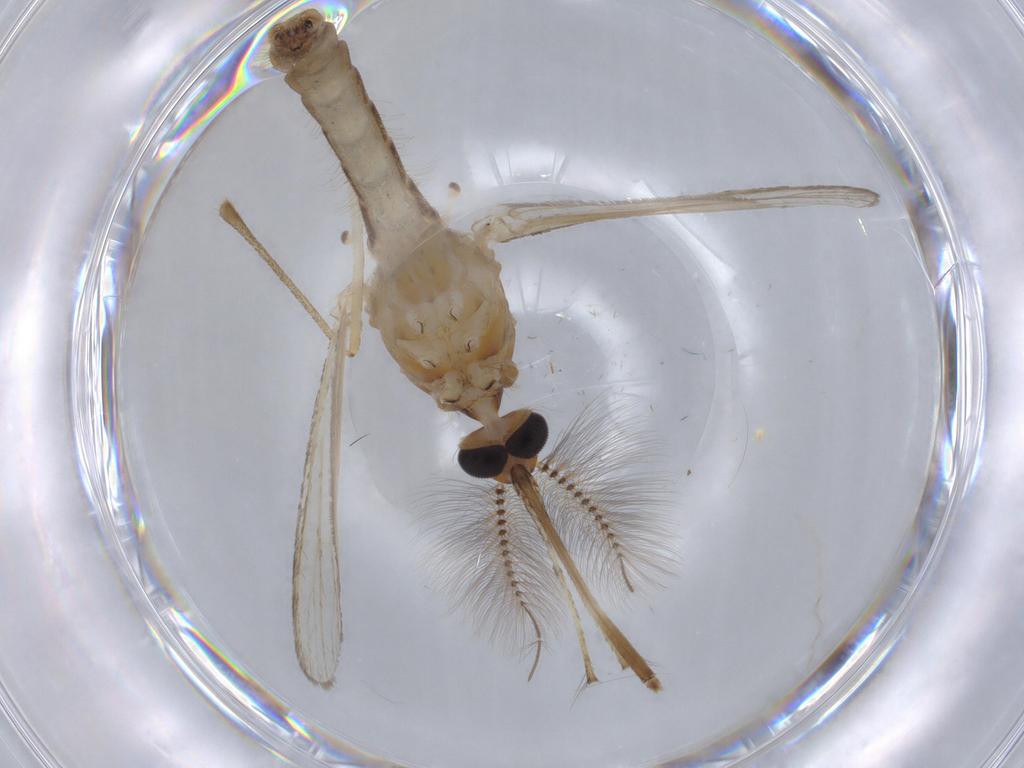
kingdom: Animalia
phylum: Arthropoda
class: Insecta
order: Diptera
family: Culicidae
